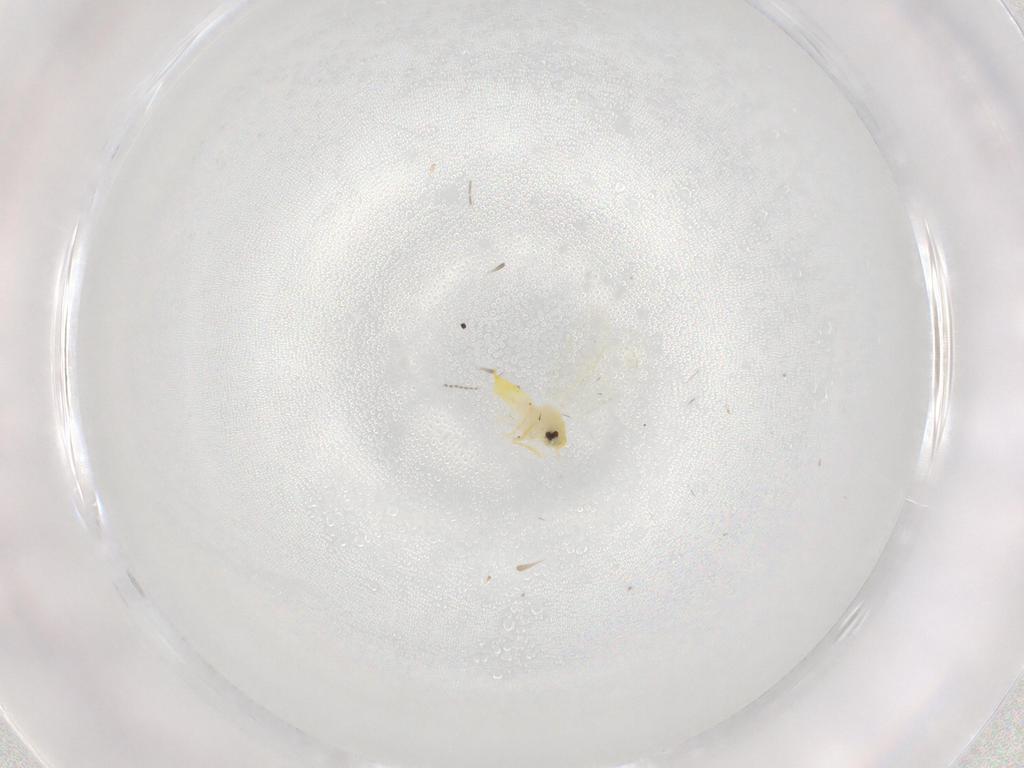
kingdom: Animalia
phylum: Arthropoda
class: Insecta
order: Hemiptera
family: Aleyrodidae
